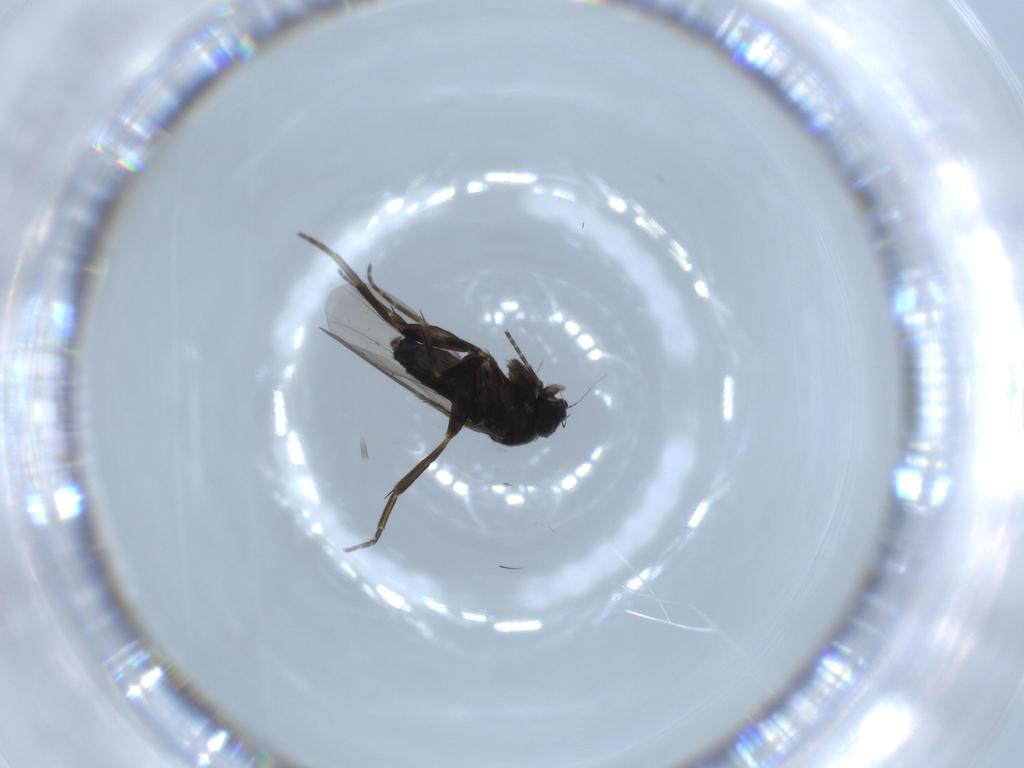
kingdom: Animalia
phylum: Arthropoda
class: Insecta
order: Diptera
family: Phoridae
